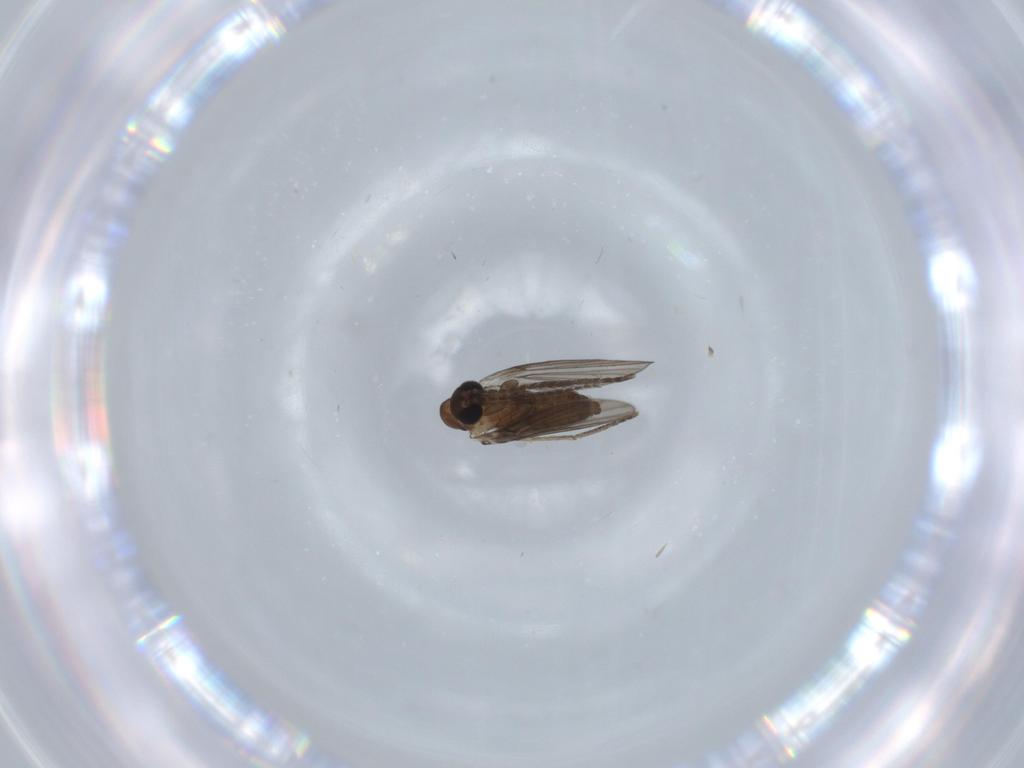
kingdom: Animalia
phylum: Arthropoda
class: Insecta
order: Diptera
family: Psychodidae
